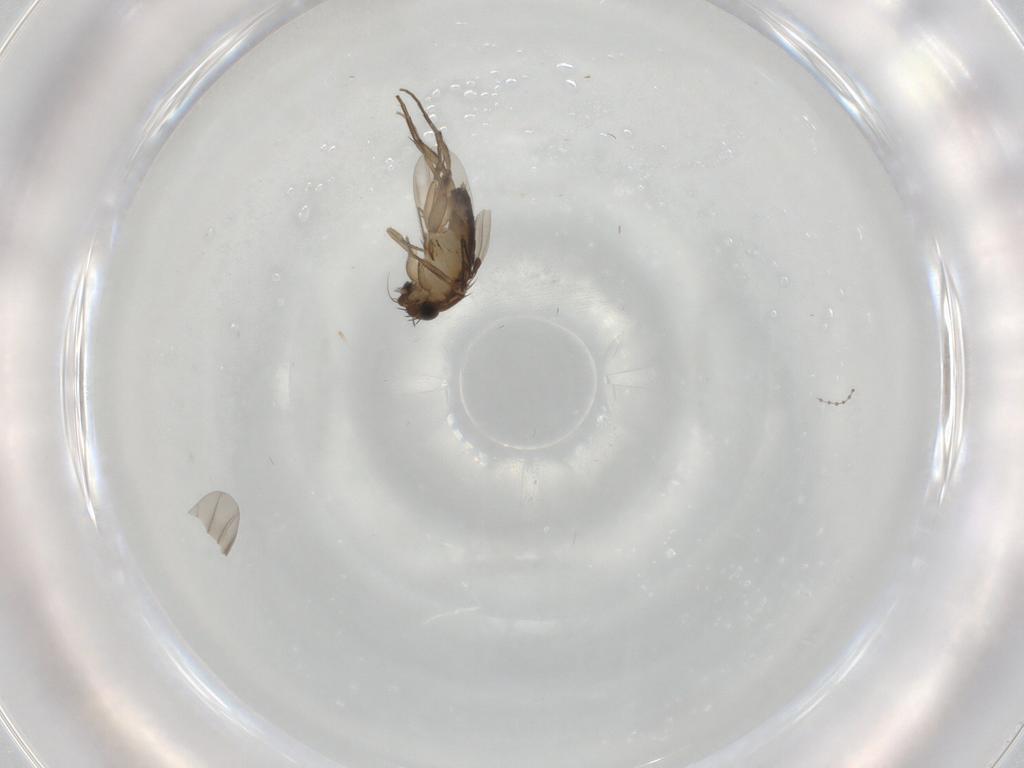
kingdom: Animalia
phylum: Arthropoda
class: Insecta
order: Diptera
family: Phoridae
